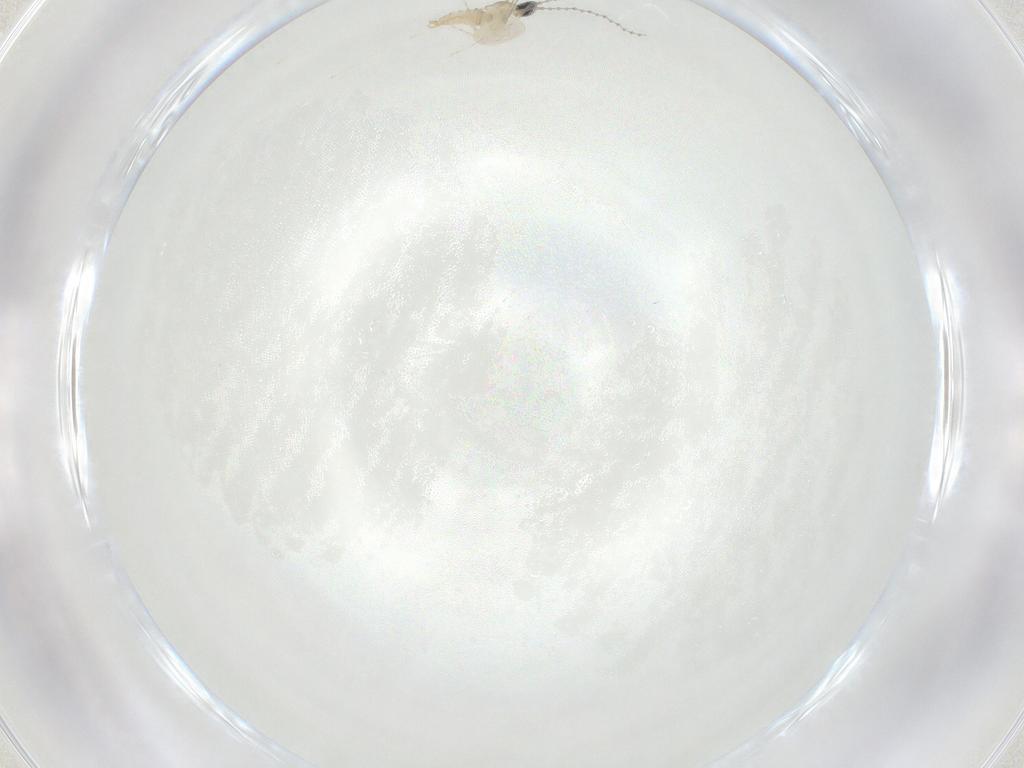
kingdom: Animalia
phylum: Arthropoda
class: Insecta
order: Diptera
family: Cecidomyiidae
